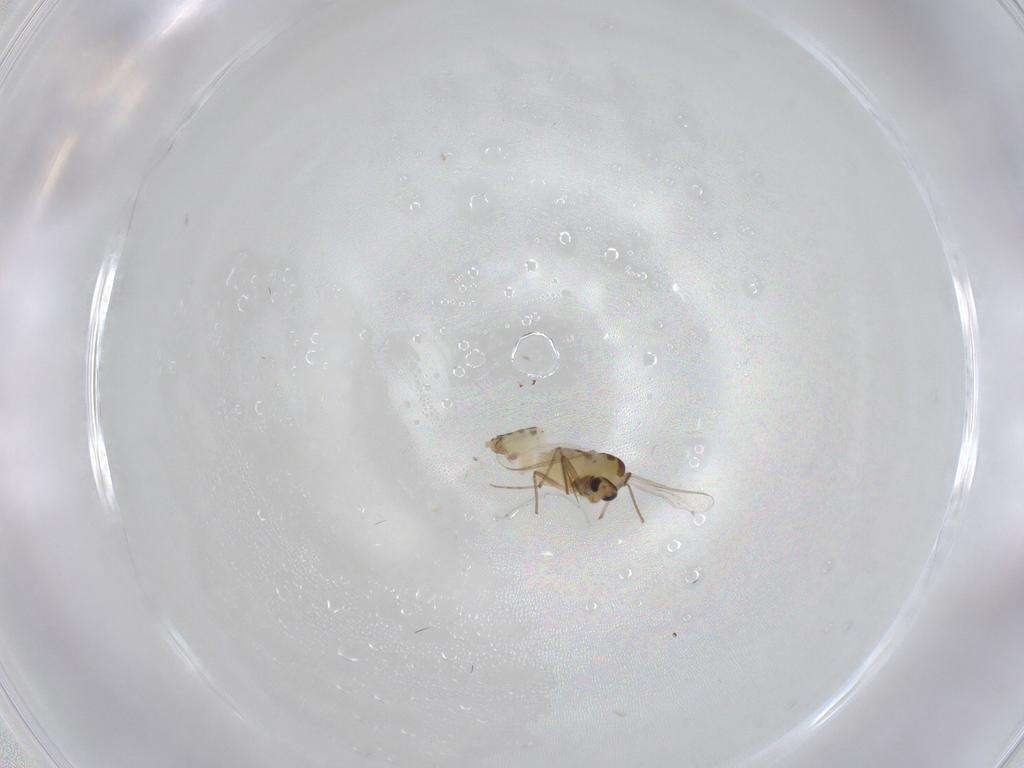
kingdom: Animalia
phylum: Arthropoda
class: Insecta
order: Diptera
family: Chironomidae
